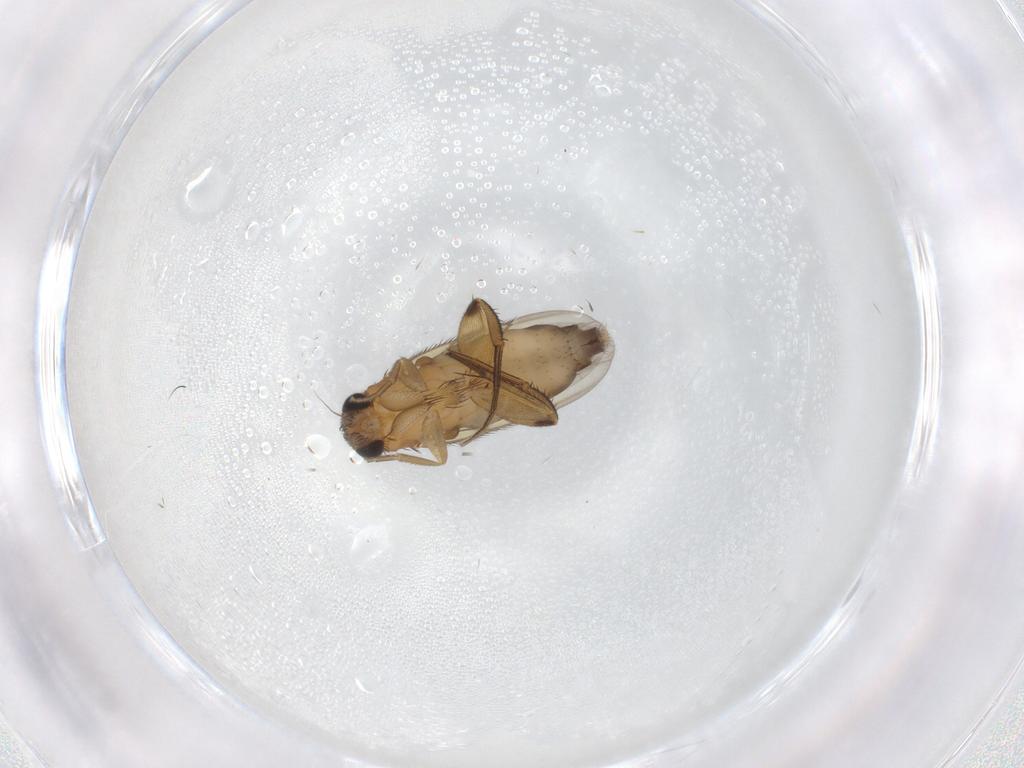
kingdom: Animalia
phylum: Arthropoda
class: Insecta
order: Diptera
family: Phoridae
